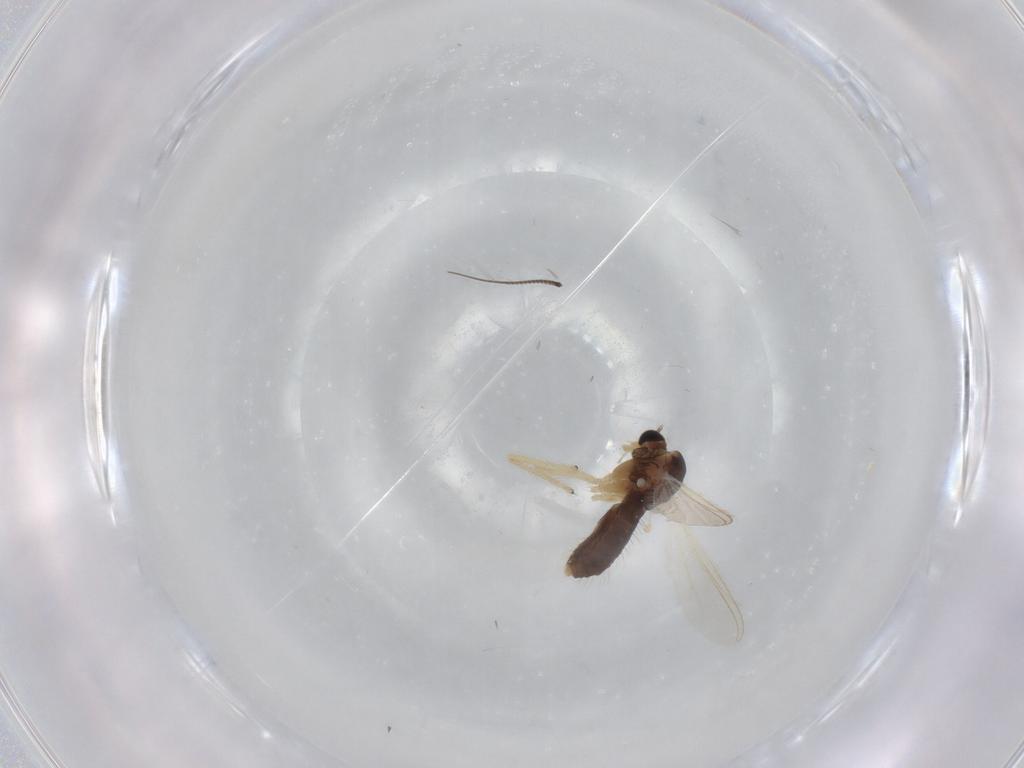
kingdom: Animalia
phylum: Arthropoda
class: Insecta
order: Diptera
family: Chironomidae
